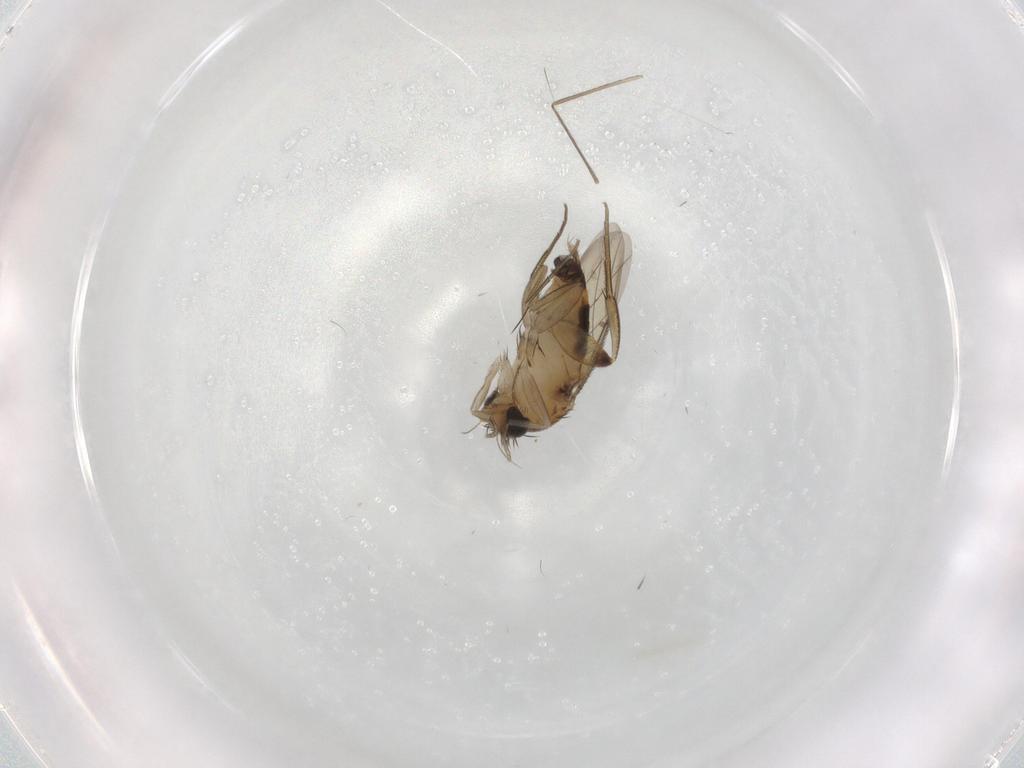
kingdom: Animalia
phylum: Arthropoda
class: Insecta
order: Diptera
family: Phoridae
